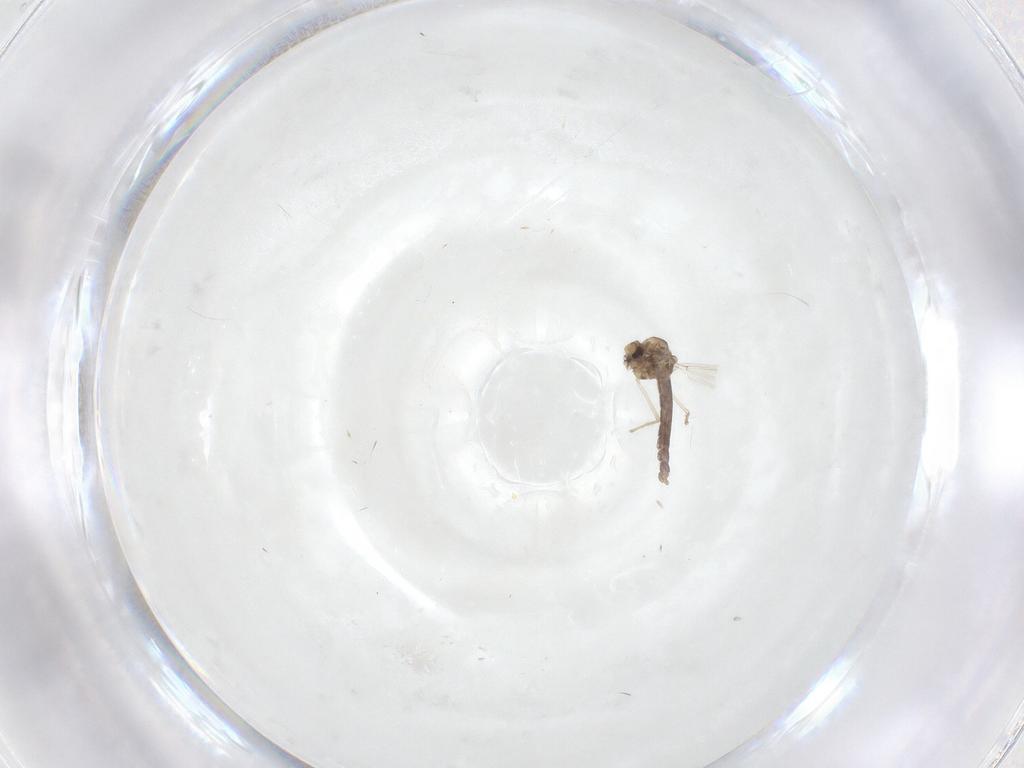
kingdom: Animalia
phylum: Arthropoda
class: Insecta
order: Diptera
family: Chironomidae
